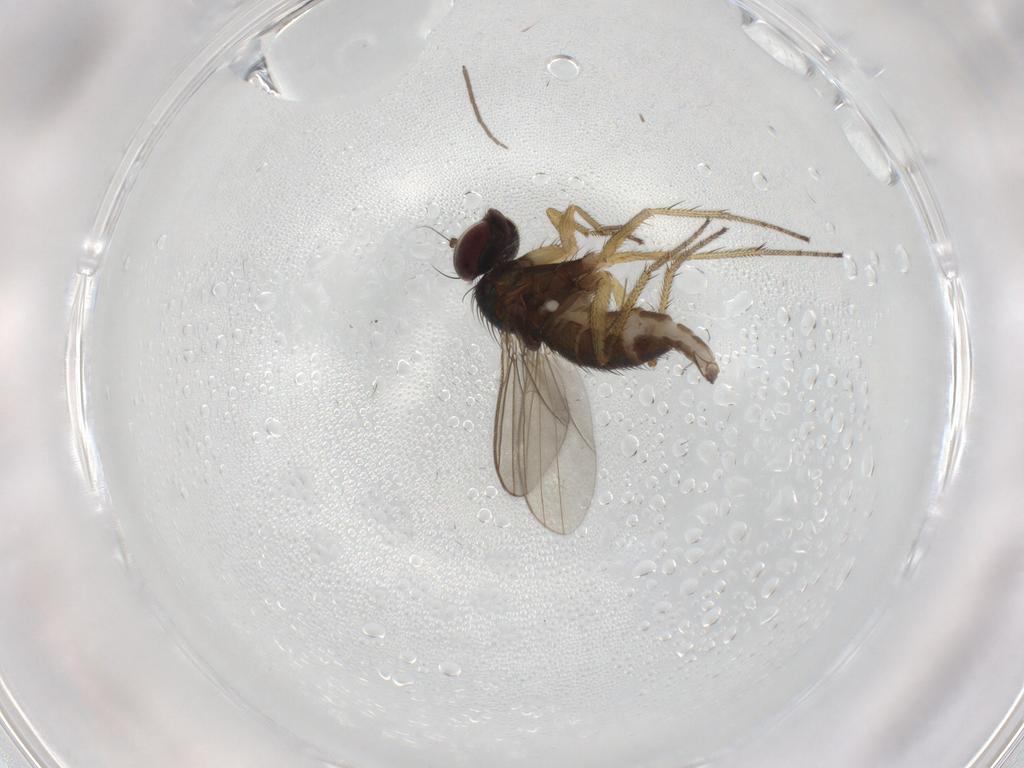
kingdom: Animalia
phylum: Arthropoda
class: Insecta
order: Diptera
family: Dolichopodidae
